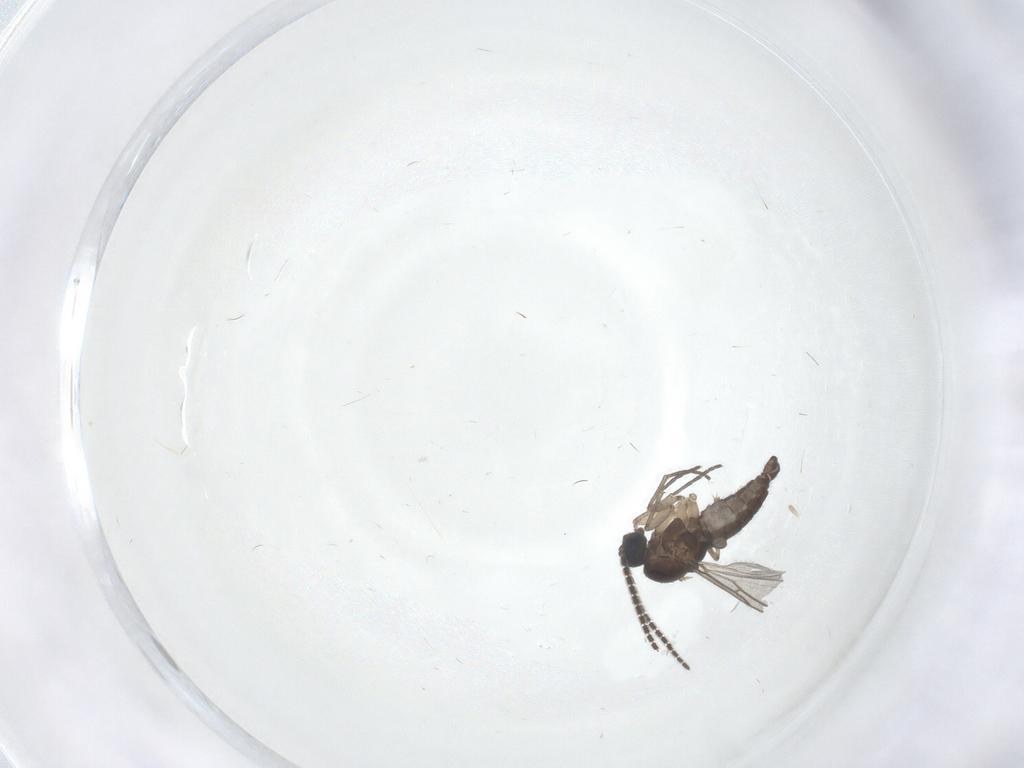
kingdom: Animalia
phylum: Arthropoda
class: Insecta
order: Diptera
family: Sciaridae
